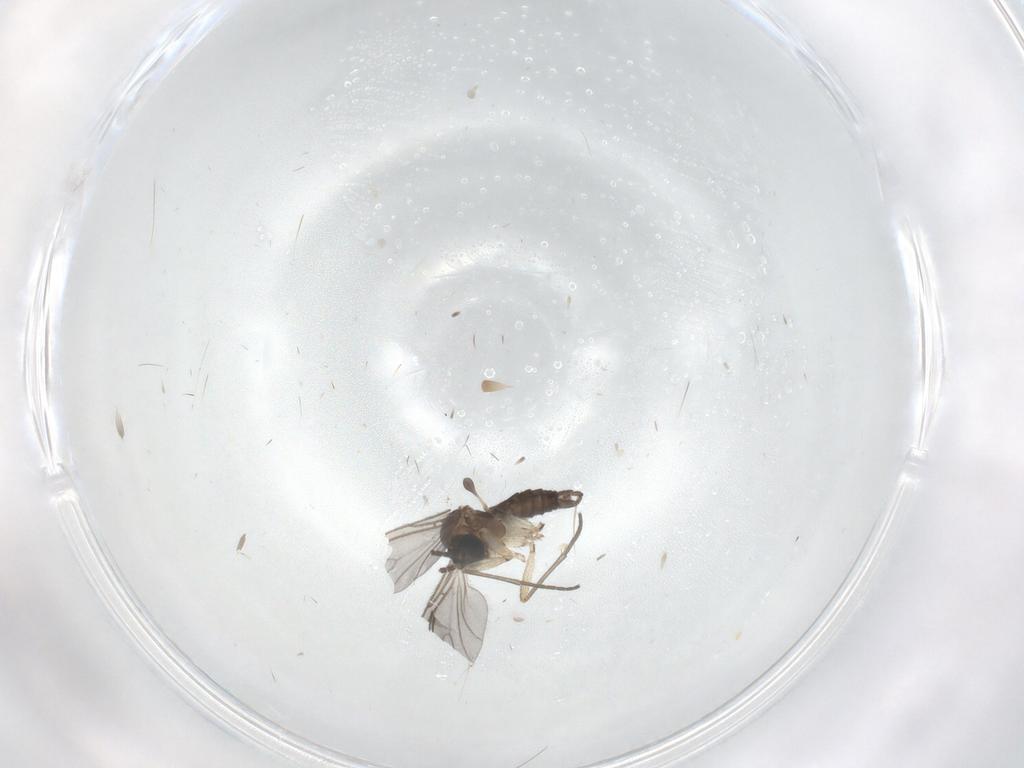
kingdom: Animalia
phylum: Arthropoda
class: Insecta
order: Diptera
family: Sciaridae
